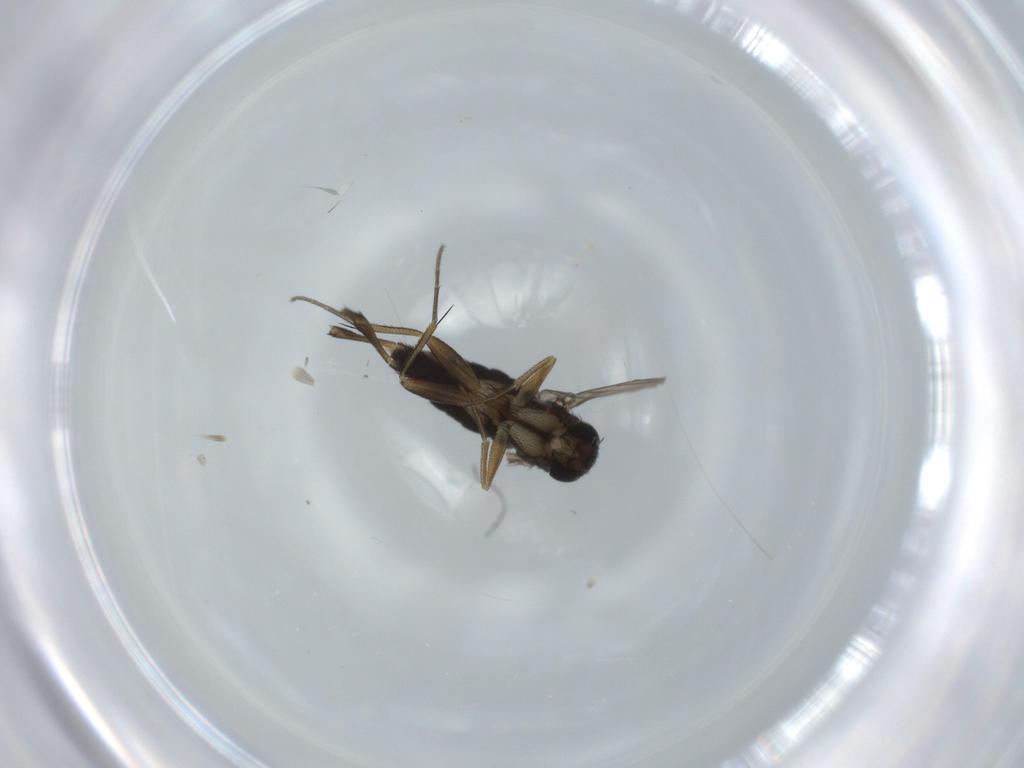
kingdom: Animalia
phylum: Arthropoda
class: Insecta
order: Diptera
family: Phoridae
